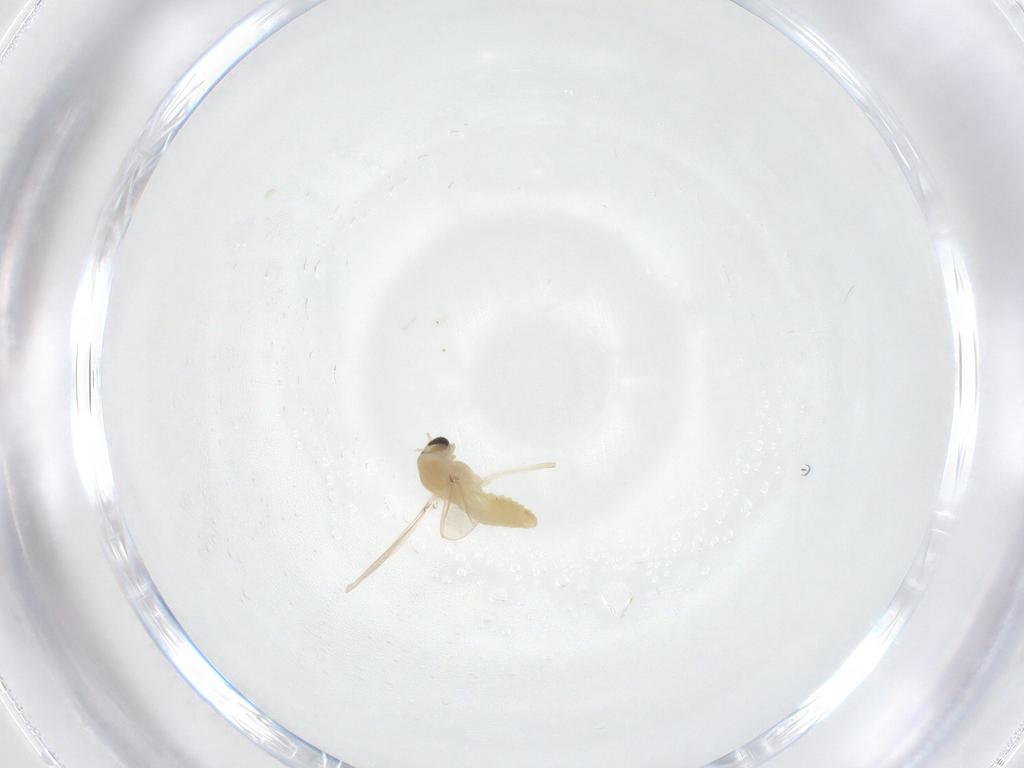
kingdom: Animalia
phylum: Arthropoda
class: Insecta
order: Diptera
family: Chironomidae
